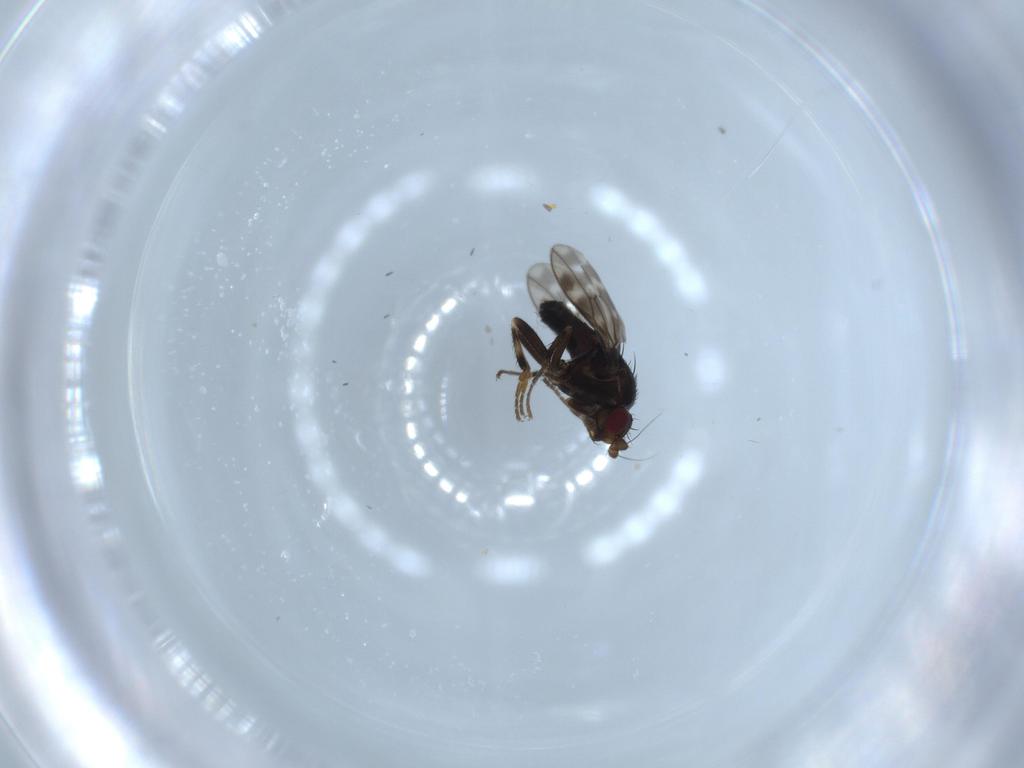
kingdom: Animalia
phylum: Arthropoda
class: Insecta
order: Diptera
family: Sphaeroceridae
